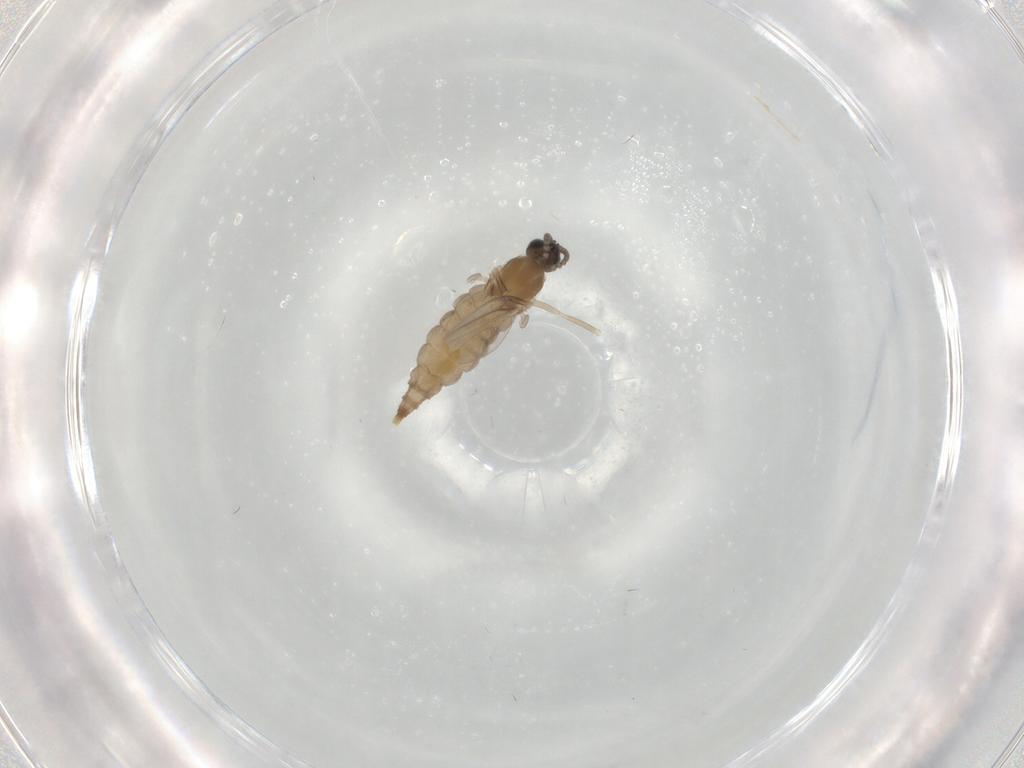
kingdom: Animalia
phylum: Arthropoda
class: Insecta
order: Diptera
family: Cecidomyiidae
